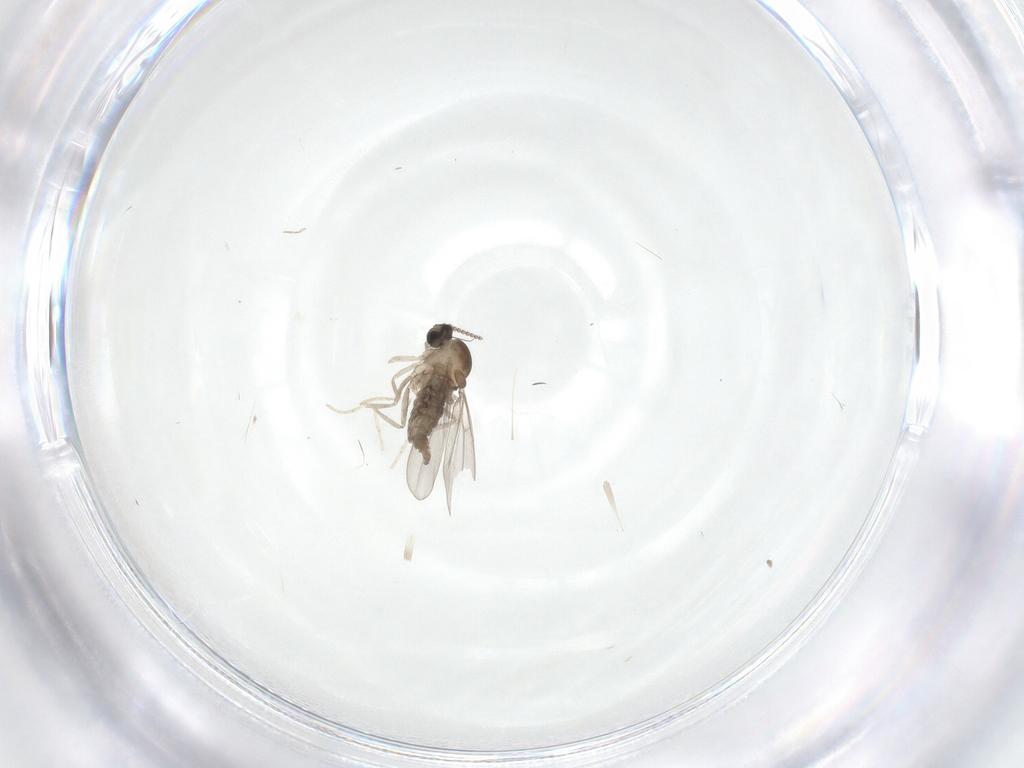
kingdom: Animalia
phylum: Arthropoda
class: Insecta
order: Diptera
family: Cecidomyiidae
